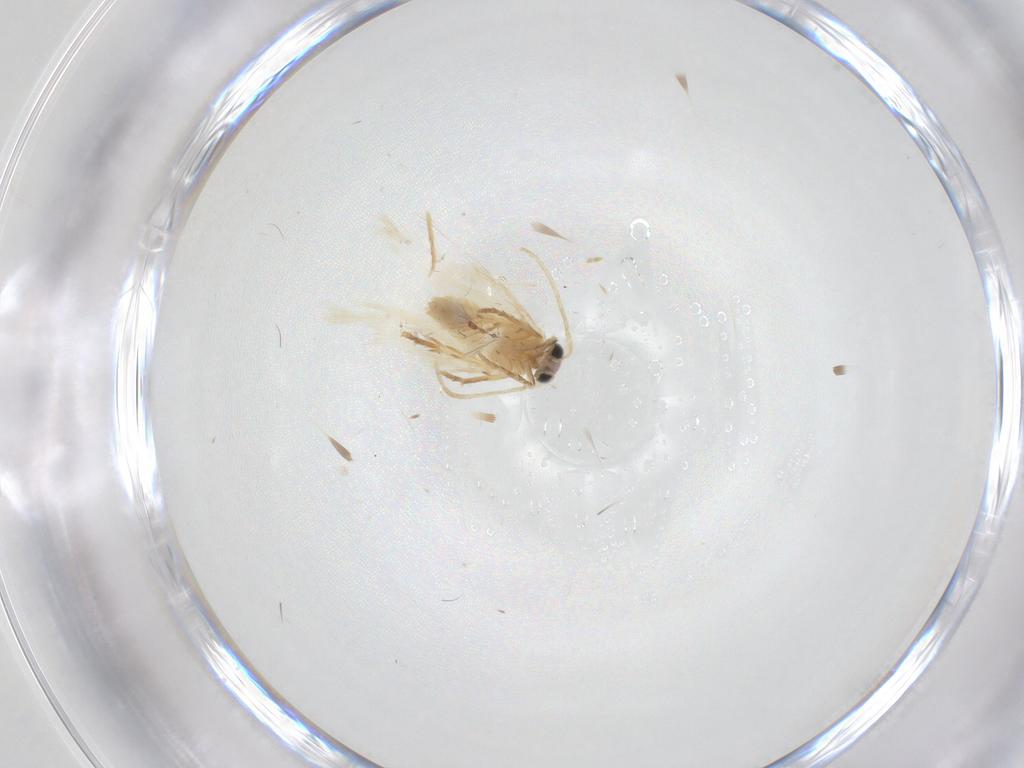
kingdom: Animalia
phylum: Arthropoda
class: Insecta
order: Lepidoptera
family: Nepticulidae
